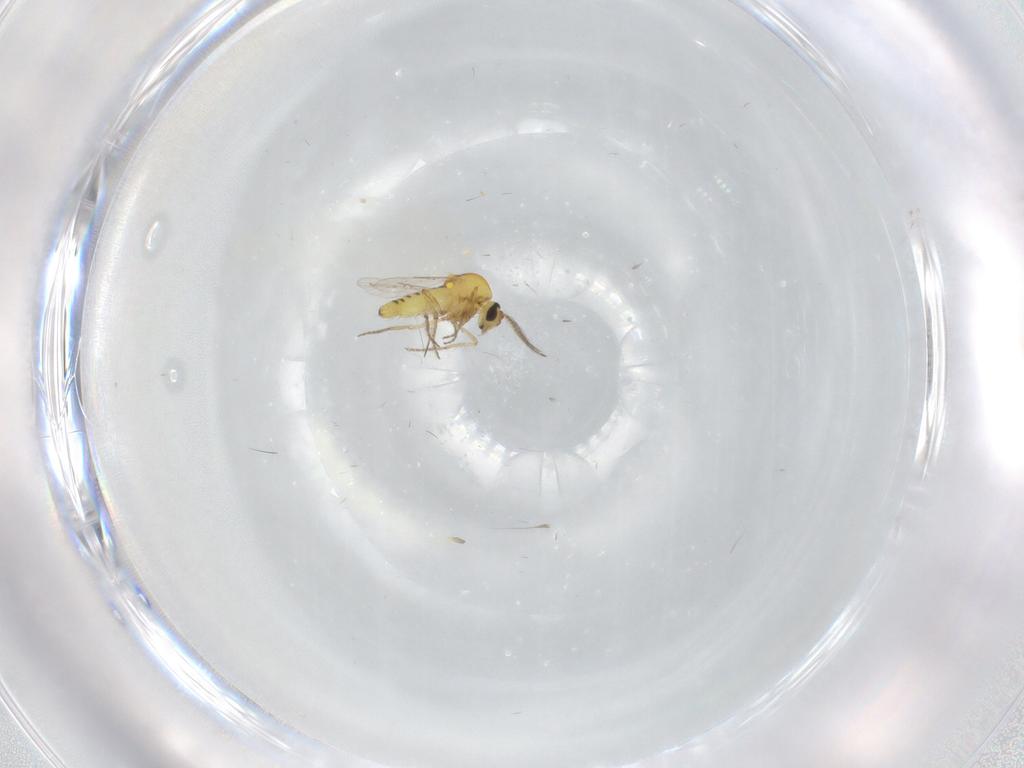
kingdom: Animalia
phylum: Arthropoda
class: Insecta
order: Diptera
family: Ceratopogonidae
